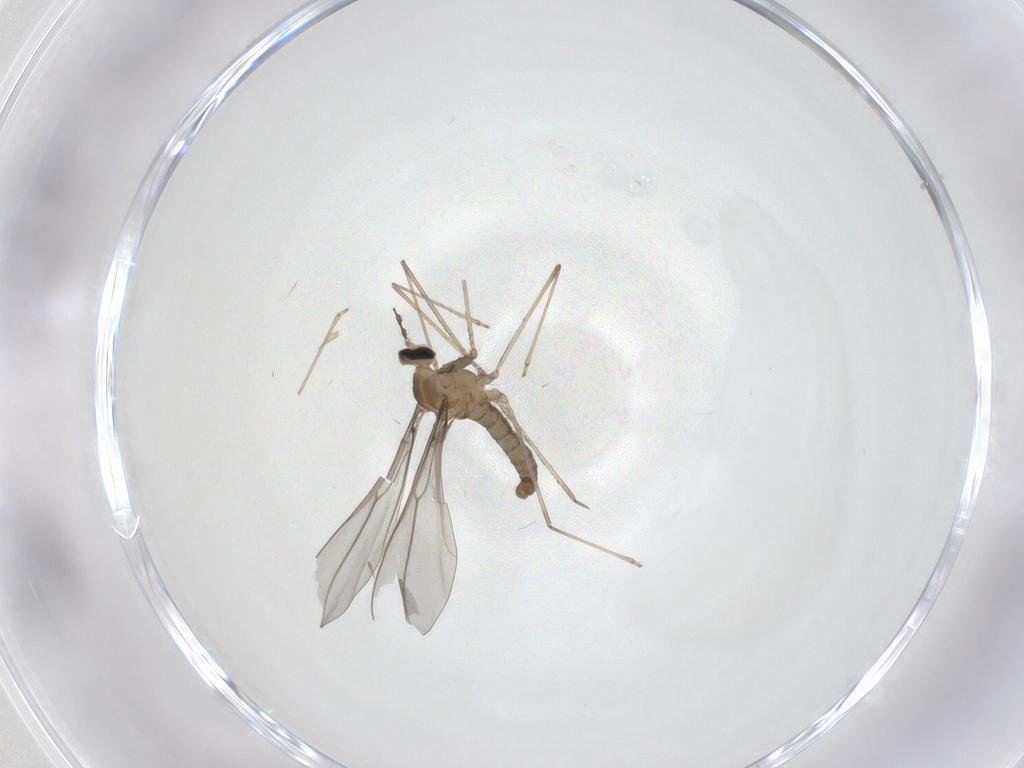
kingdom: Animalia
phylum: Arthropoda
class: Insecta
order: Diptera
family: Cecidomyiidae
